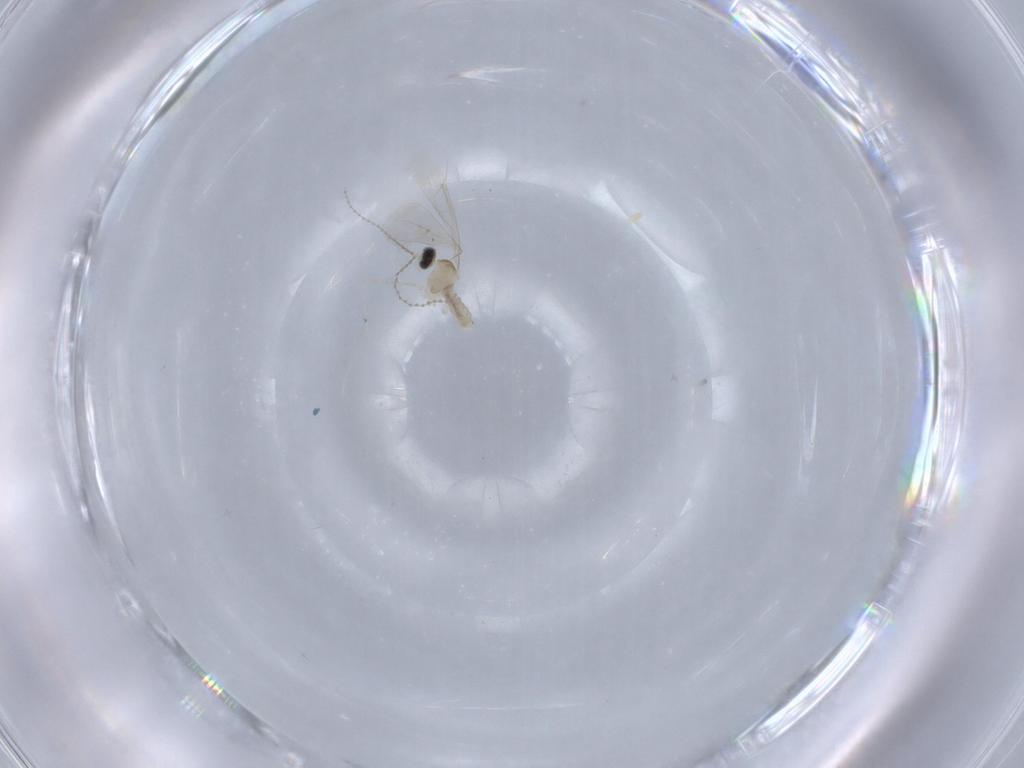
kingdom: Animalia
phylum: Arthropoda
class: Insecta
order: Diptera
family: Cecidomyiidae
